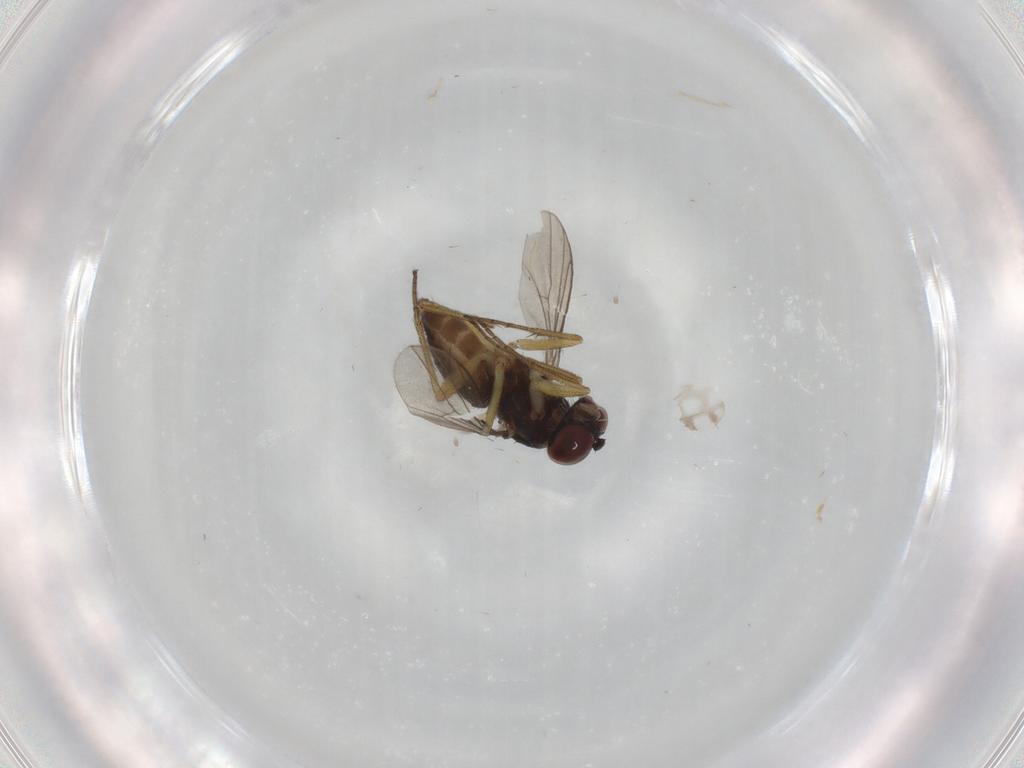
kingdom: Animalia
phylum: Arthropoda
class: Insecta
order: Diptera
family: Dolichopodidae
